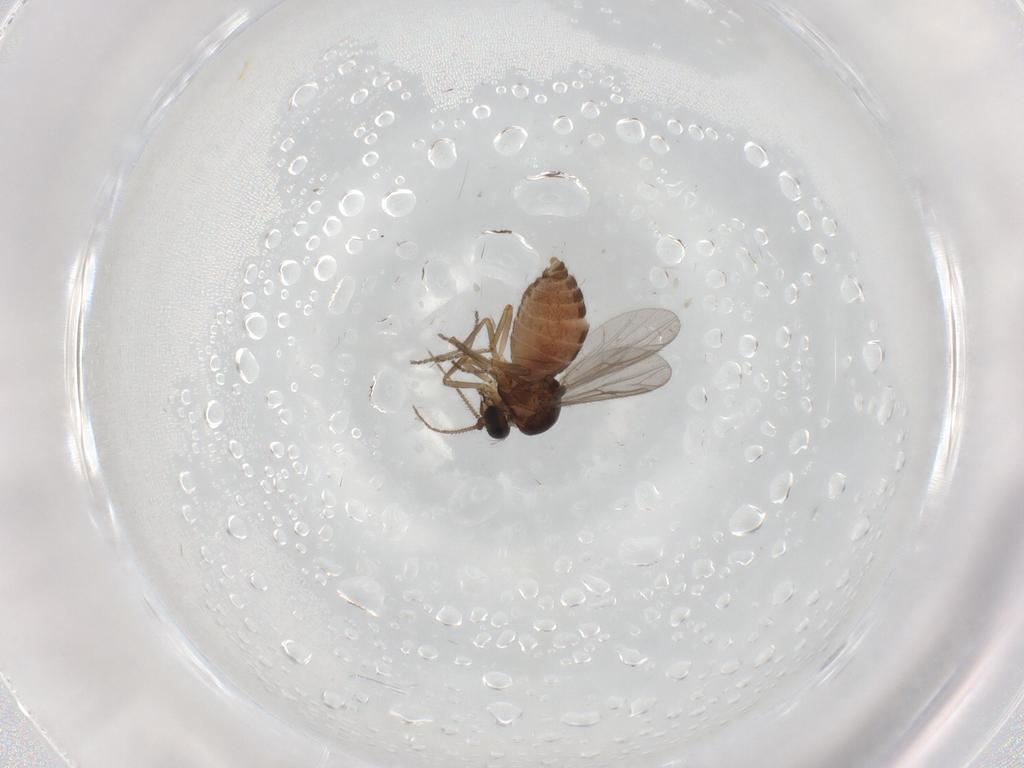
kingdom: Animalia
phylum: Arthropoda
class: Insecta
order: Diptera
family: Ceratopogonidae
